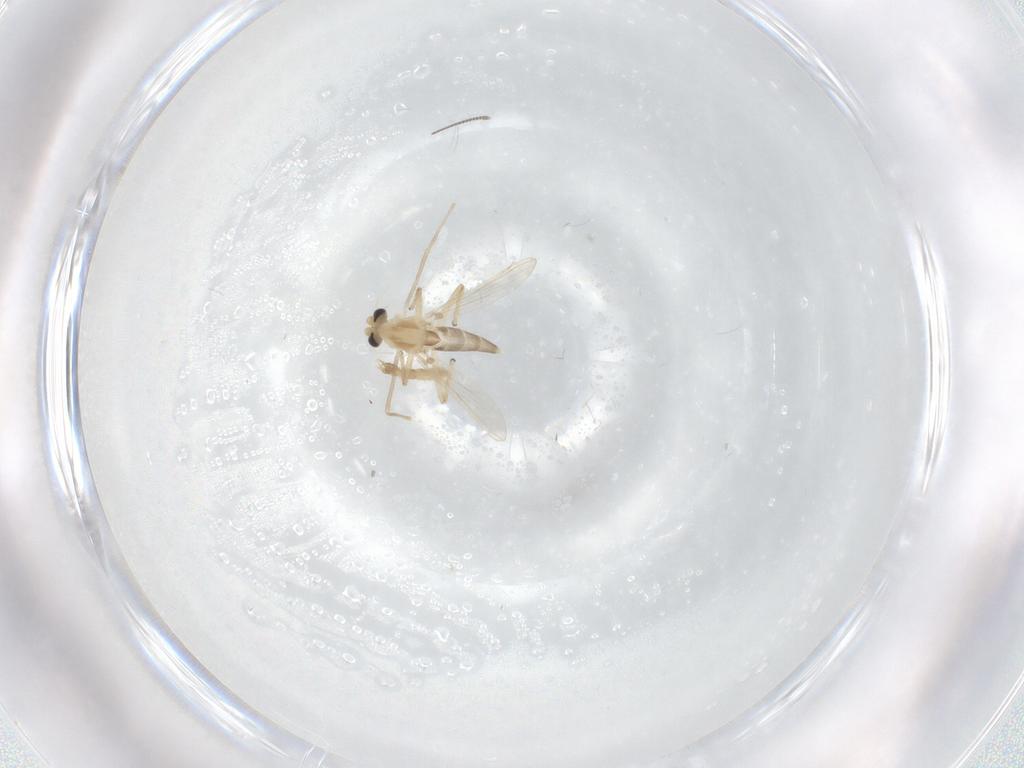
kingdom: Animalia
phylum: Arthropoda
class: Insecta
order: Diptera
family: Chironomidae
